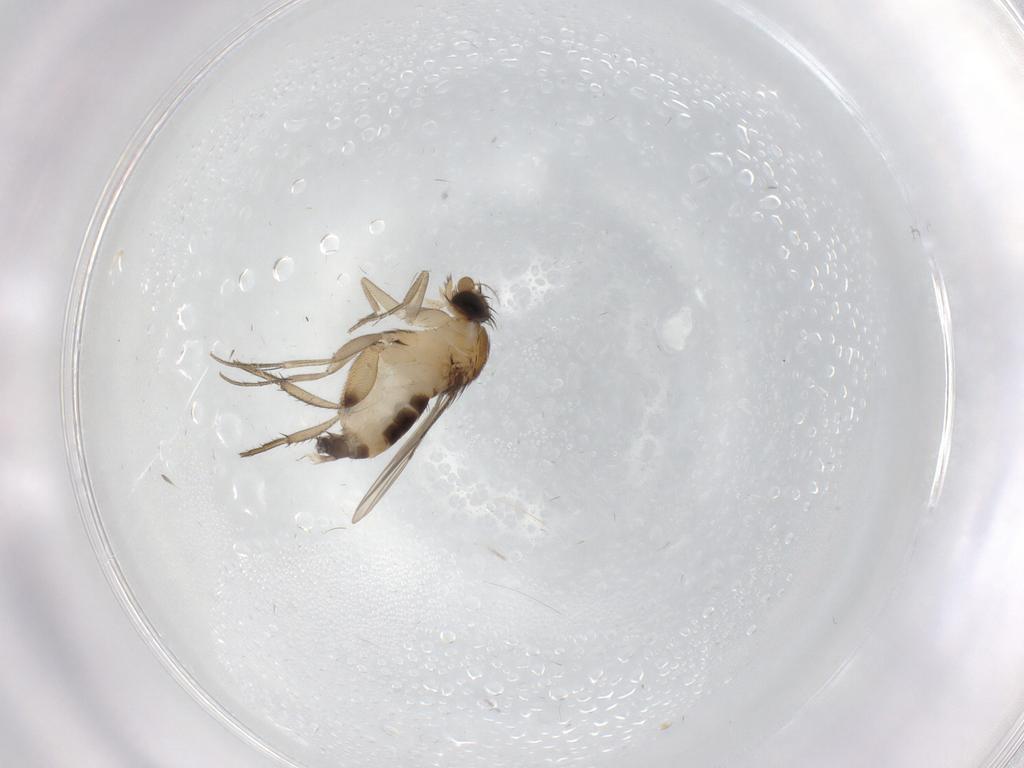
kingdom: Animalia
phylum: Arthropoda
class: Insecta
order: Diptera
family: Phoridae
